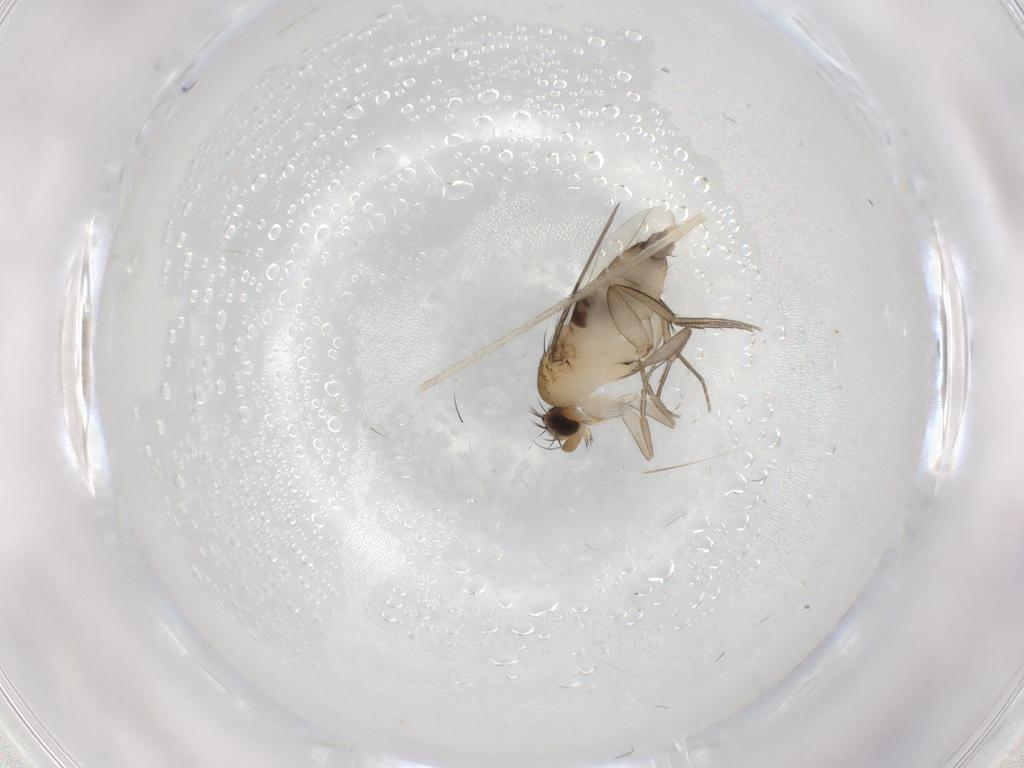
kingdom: Animalia
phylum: Arthropoda
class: Insecta
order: Diptera
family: Phoridae
